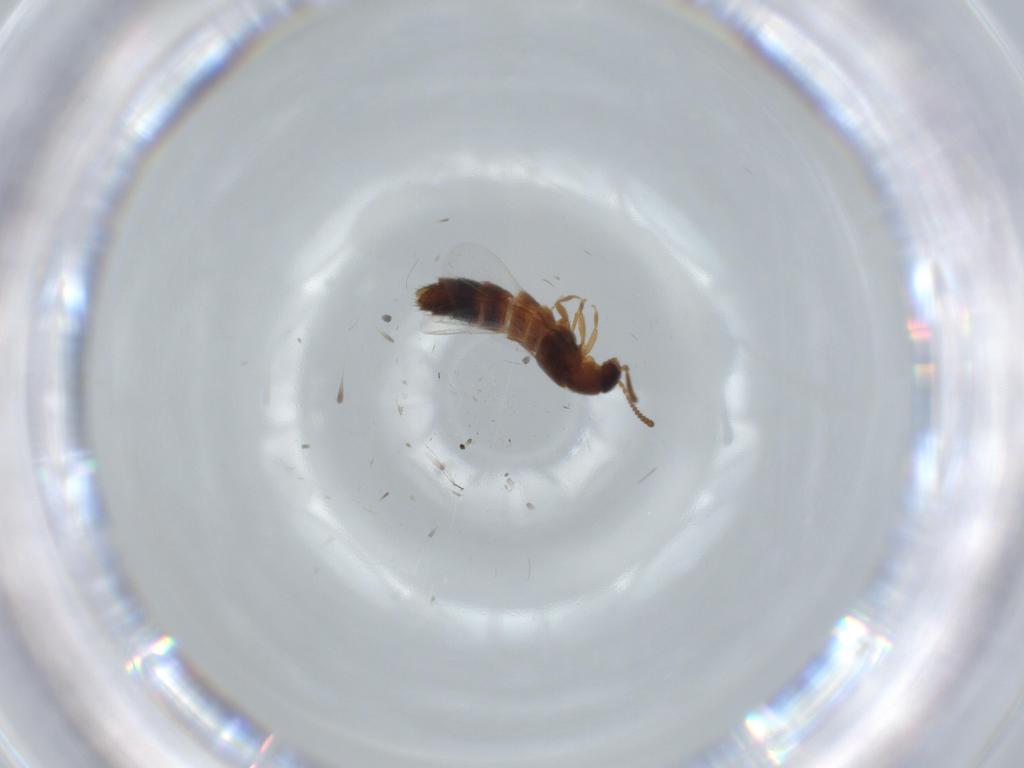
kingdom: Animalia
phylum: Arthropoda
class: Insecta
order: Coleoptera
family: Staphylinidae
